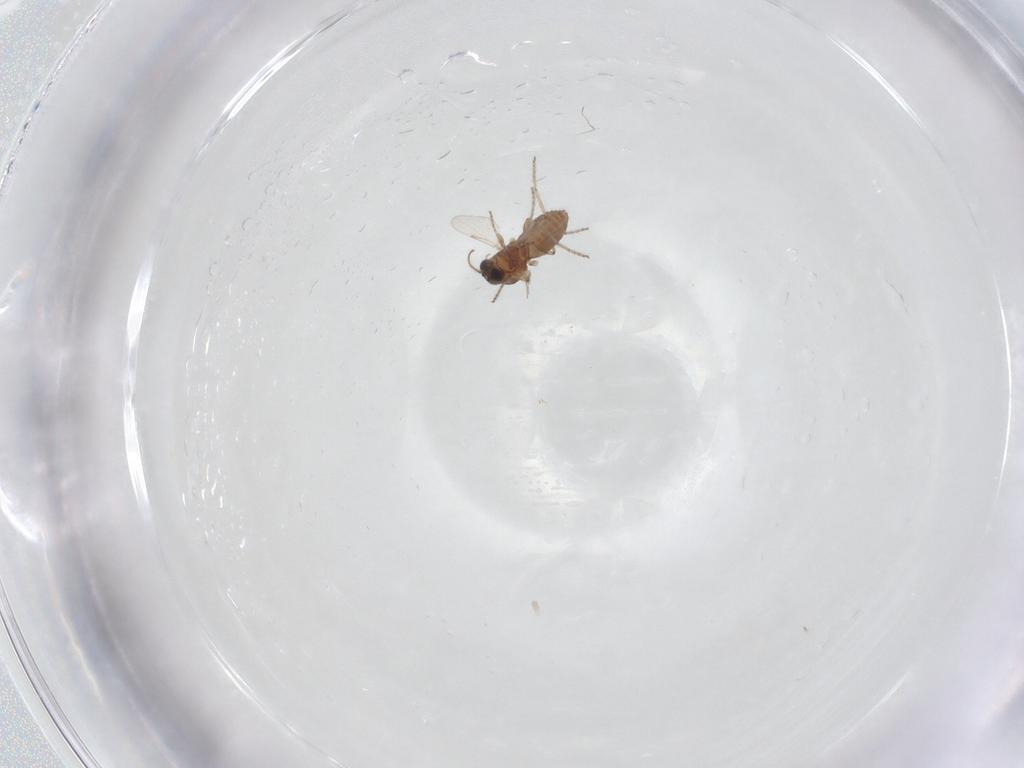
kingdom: Animalia
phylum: Arthropoda
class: Insecta
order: Diptera
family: Ceratopogonidae
